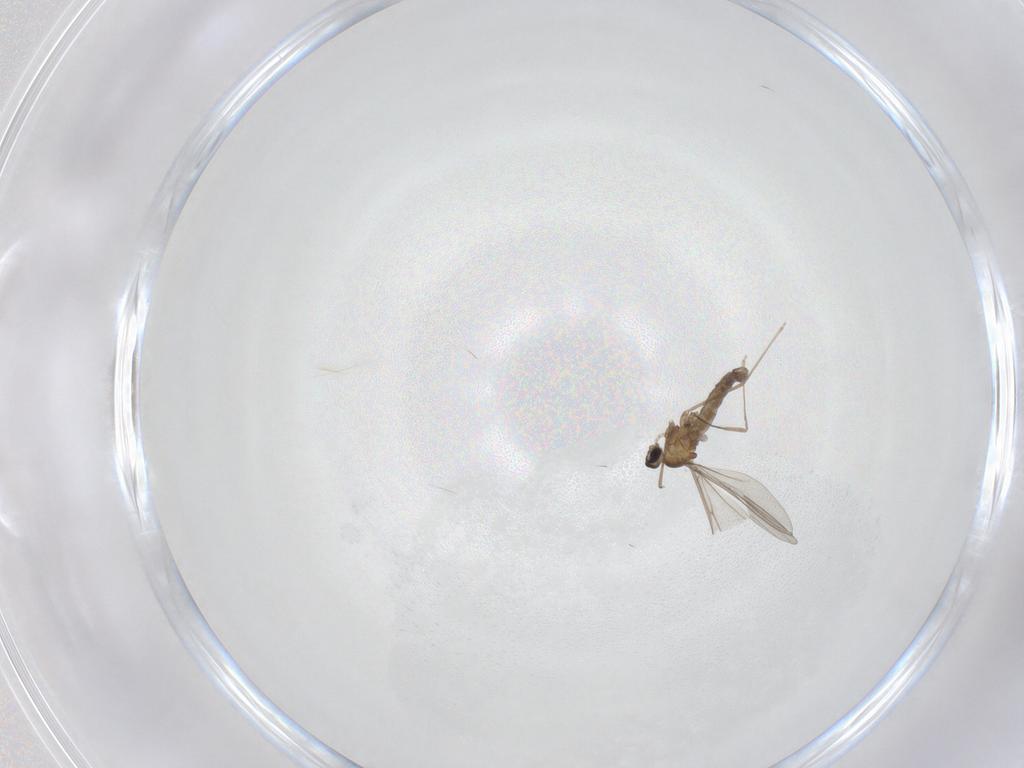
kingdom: Animalia
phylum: Arthropoda
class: Insecta
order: Diptera
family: Cecidomyiidae
